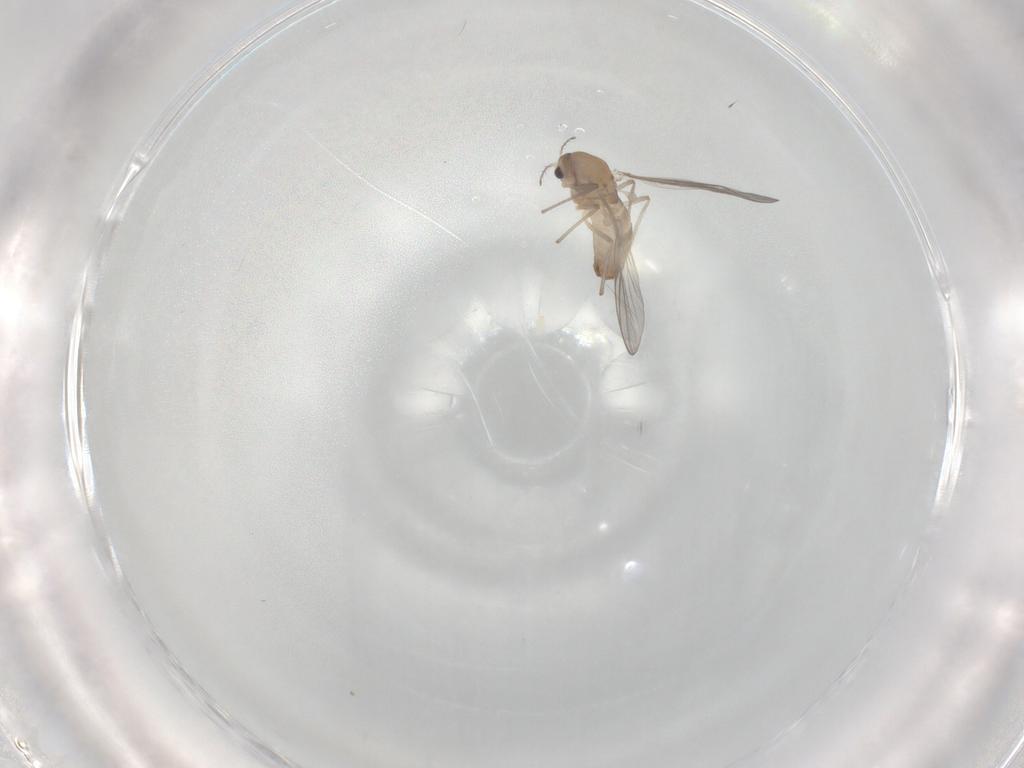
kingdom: Animalia
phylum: Arthropoda
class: Insecta
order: Diptera
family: Chironomidae
